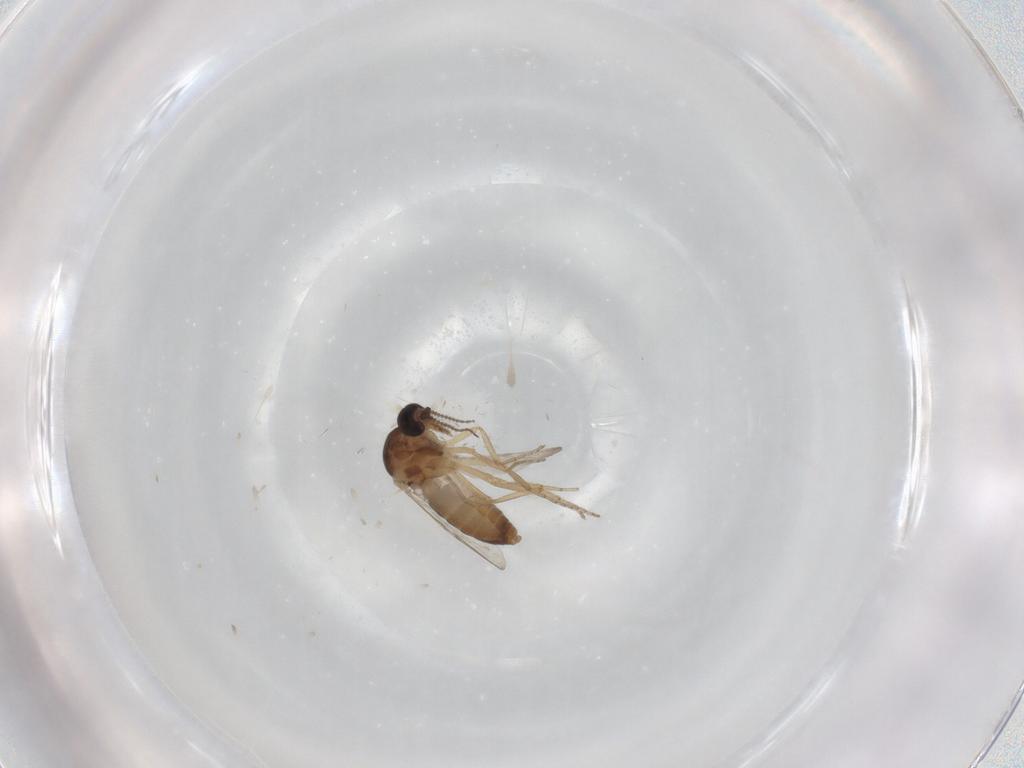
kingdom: Animalia
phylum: Arthropoda
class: Insecta
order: Diptera
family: Ceratopogonidae
